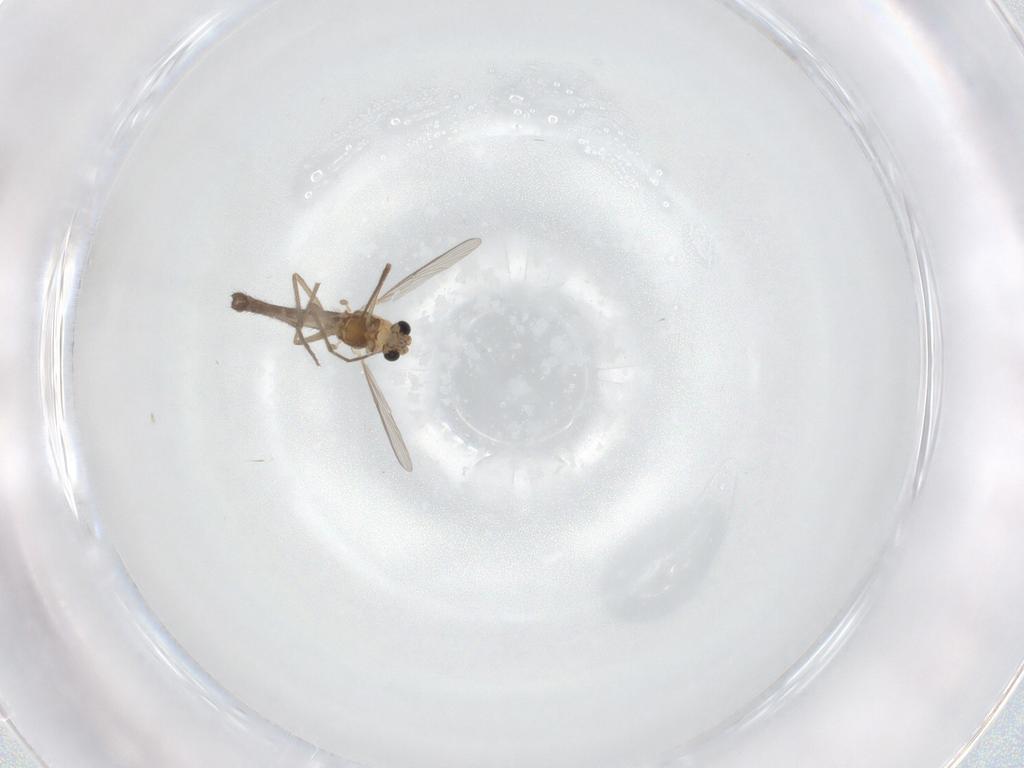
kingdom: Animalia
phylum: Arthropoda
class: Insecta
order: Diptera
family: Chironomidae
